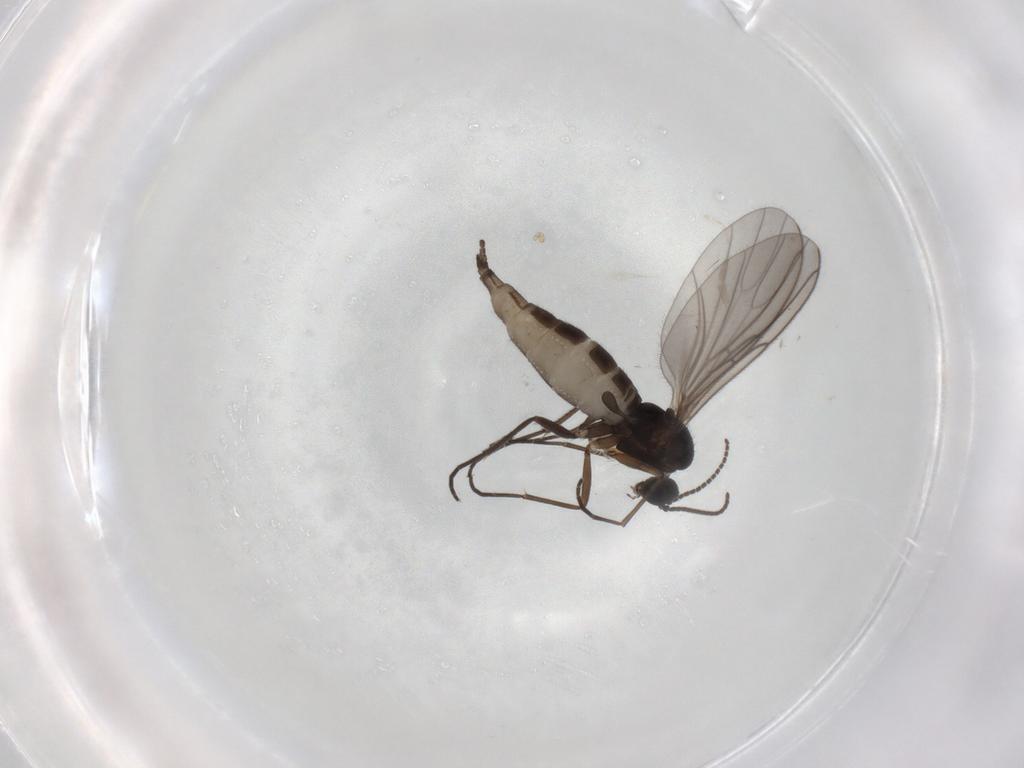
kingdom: Animalia
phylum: Arthropoda
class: Insecta
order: Diptera
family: Sciaridae
